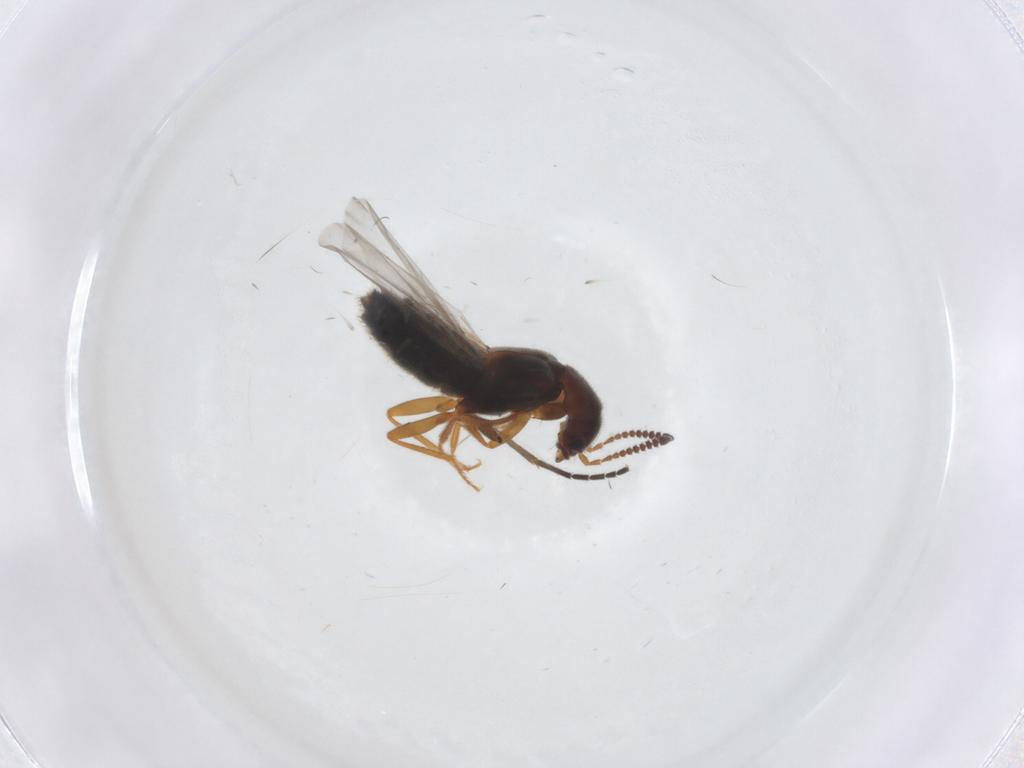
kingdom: Animalia
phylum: Arthropoda
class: Insecta
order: Coleoptera
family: Staphylinidae
